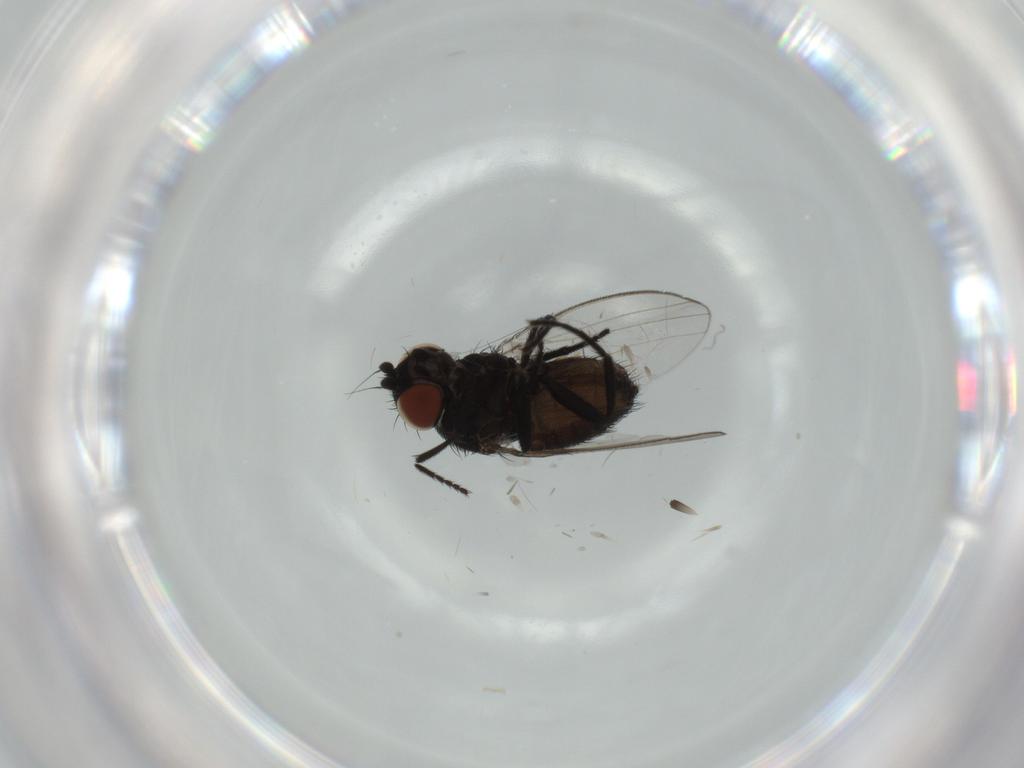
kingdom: Animalia
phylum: Arthropoda
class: Insecta
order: Diptera
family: Milichiidae
